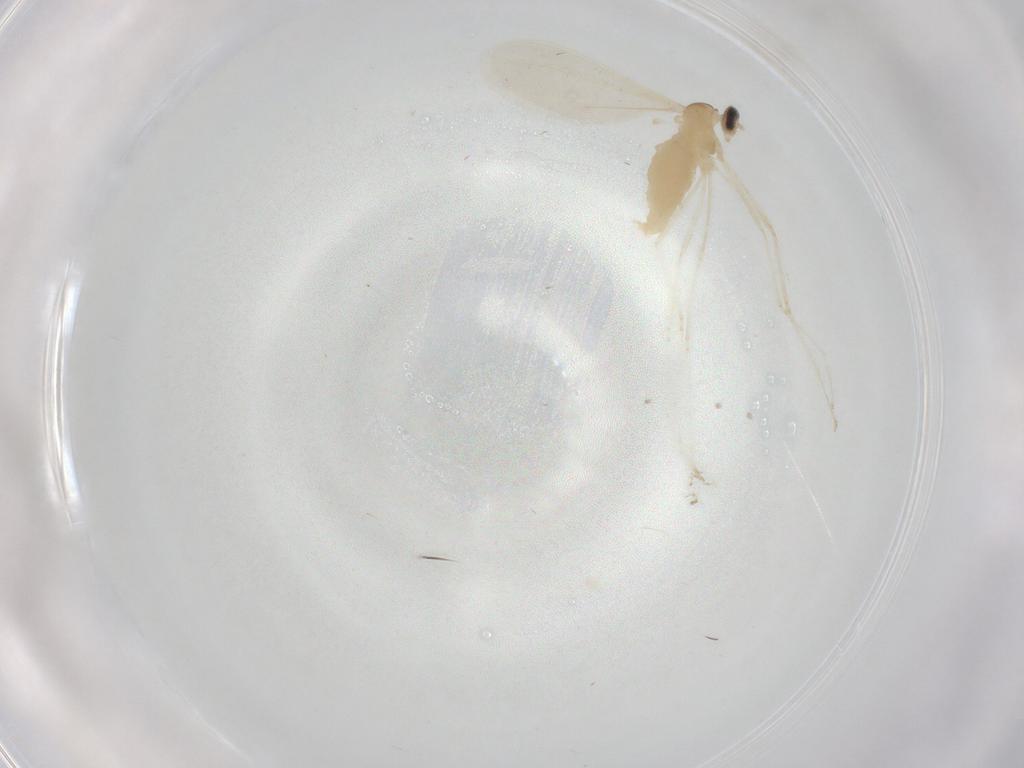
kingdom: Animalia
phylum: Arthropoda
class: Insecta
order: Diptera
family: Cecidomyiidae
